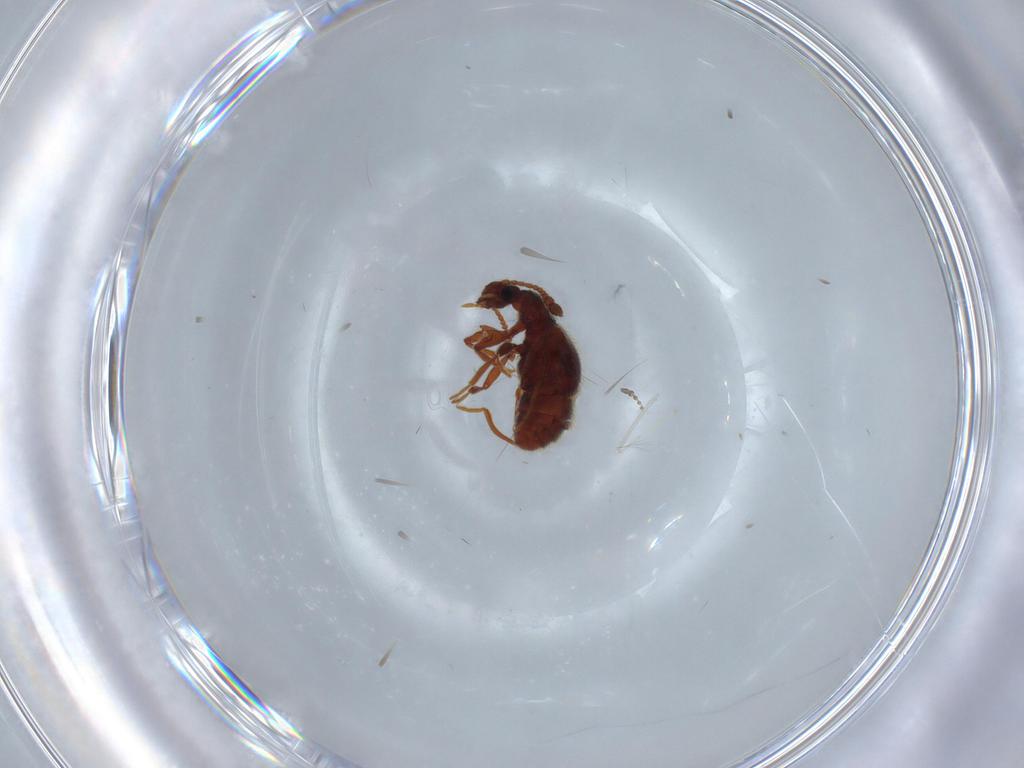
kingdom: Animalia
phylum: Arthropoda
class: Insecta
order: Coleoptera
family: Staphylinidae
